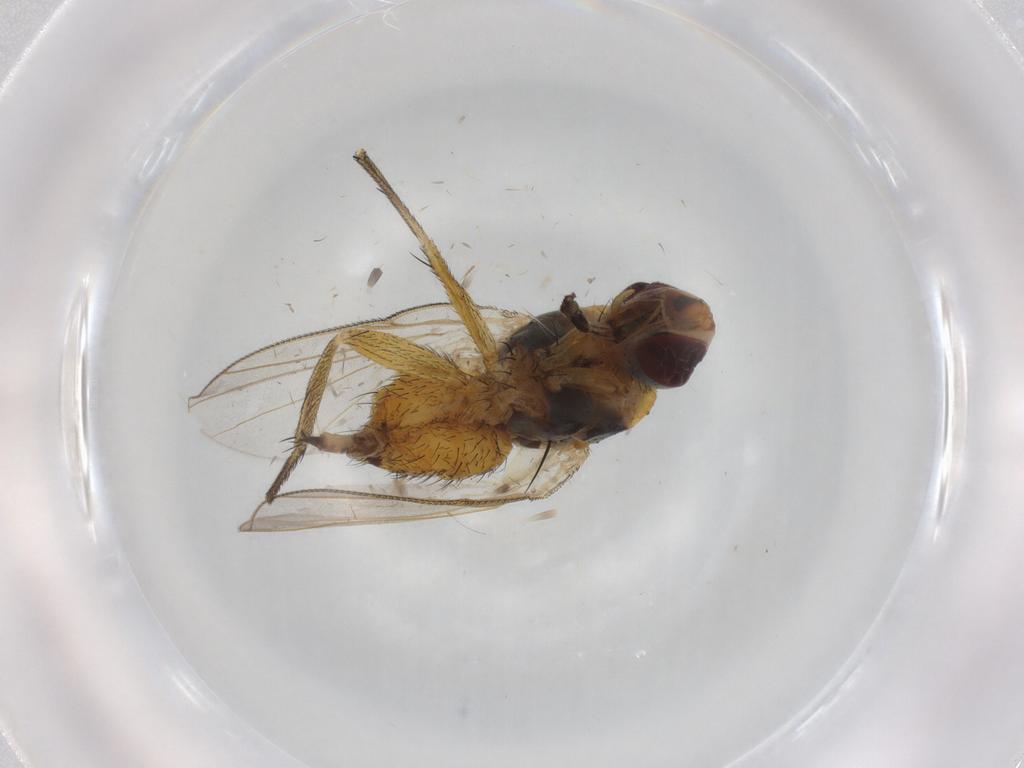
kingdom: Animalia
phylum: Arthropoda
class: Insecta
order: Diptera
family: Muscidae
